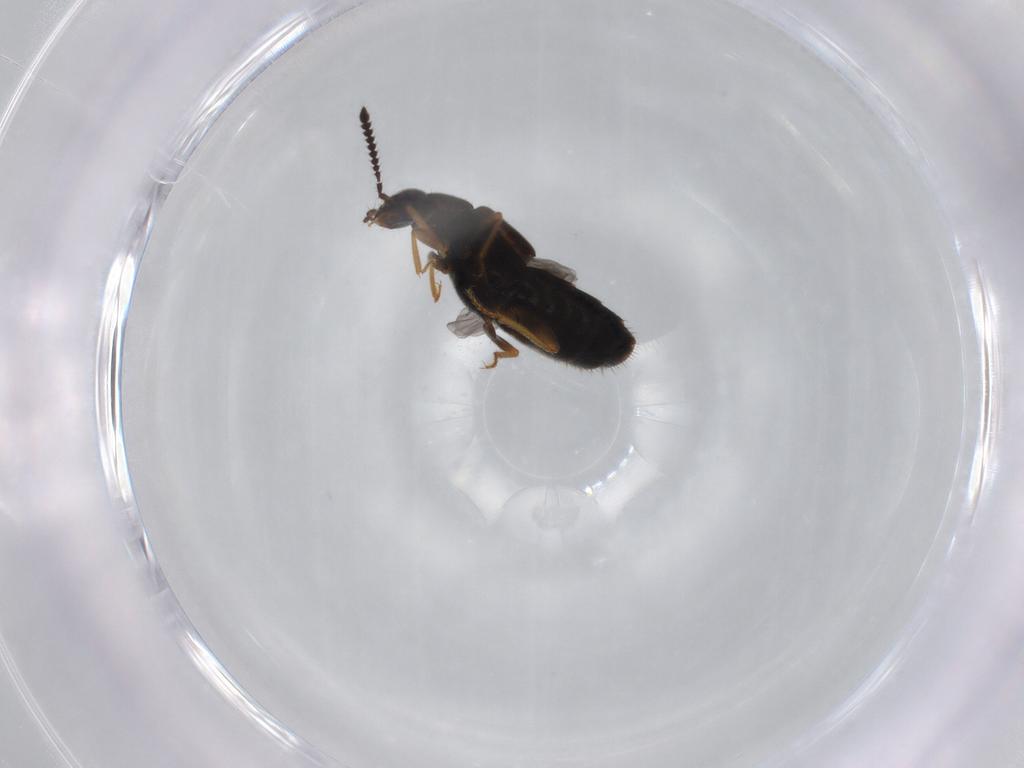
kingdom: Animalia
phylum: Arthropoda
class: Insecta
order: Coleoptera
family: Staphylinidae
